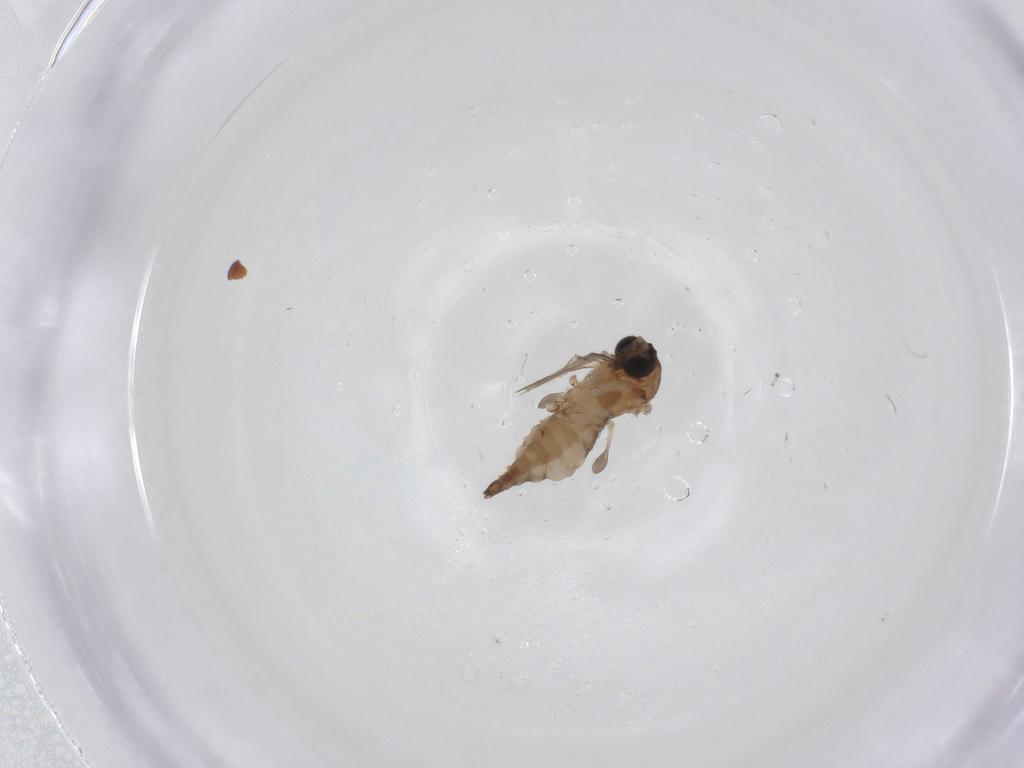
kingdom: Animalia
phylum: Arthropoda
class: Insecta
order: Diptera
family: Sciaridae
